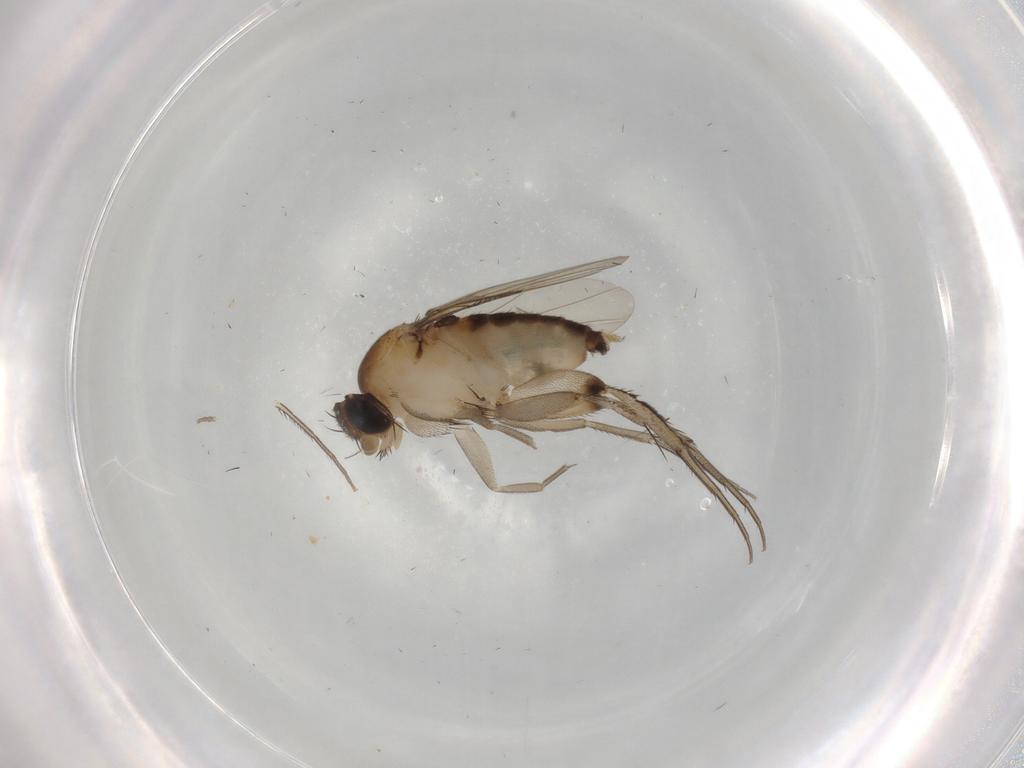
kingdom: Animalia
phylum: Arthropoda
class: Insecta
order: Diptera
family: Phoridae
